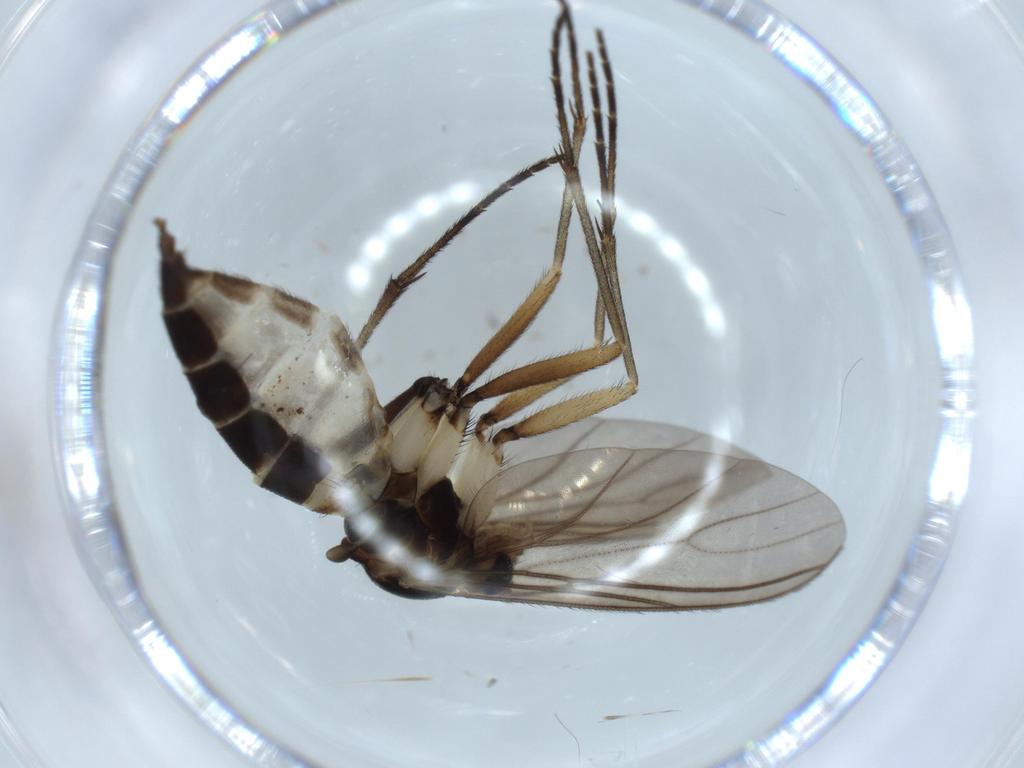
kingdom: Animalia
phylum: Arthropoda
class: Insecta
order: Diptera
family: Sciaridae
